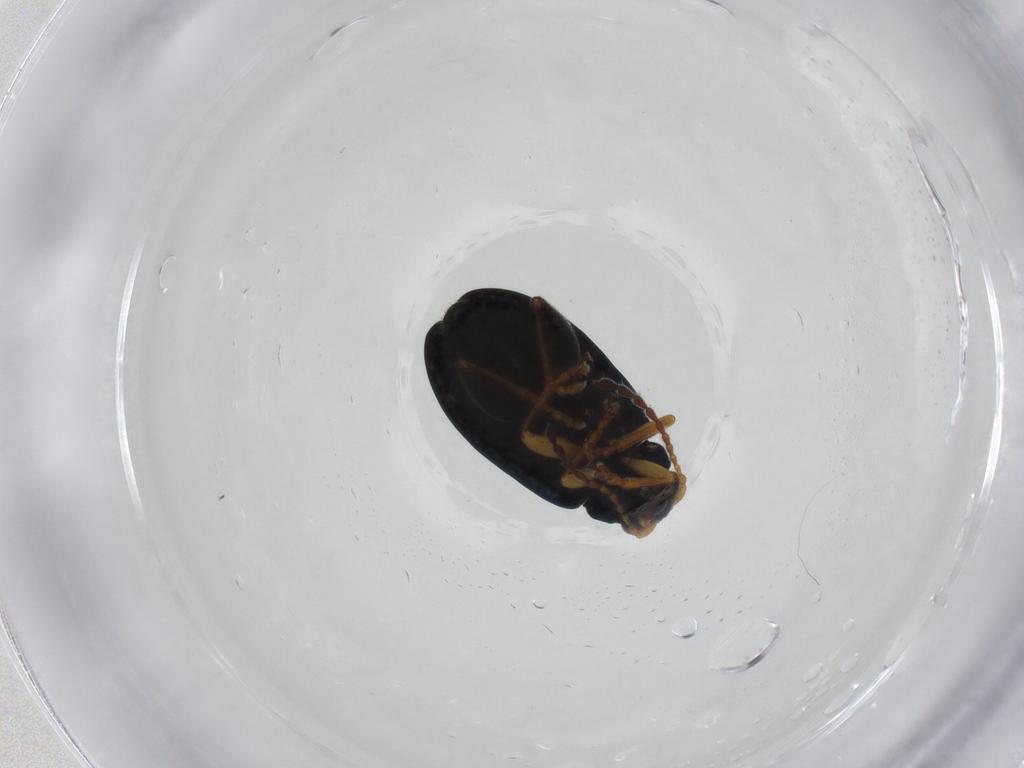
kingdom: Animalia
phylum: Arthropoda
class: Insecta
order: Coleoptera
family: Chrysomelidae
